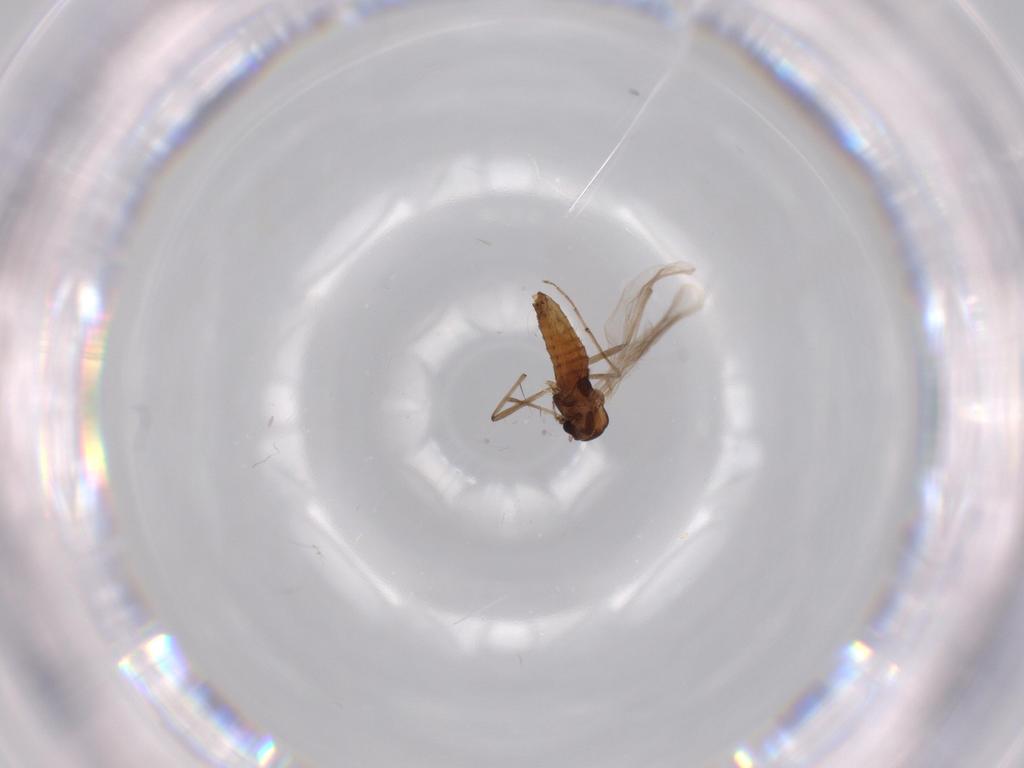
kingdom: Animalia
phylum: Arthropoda
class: Insecta
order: Diptera
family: Chironomidae
